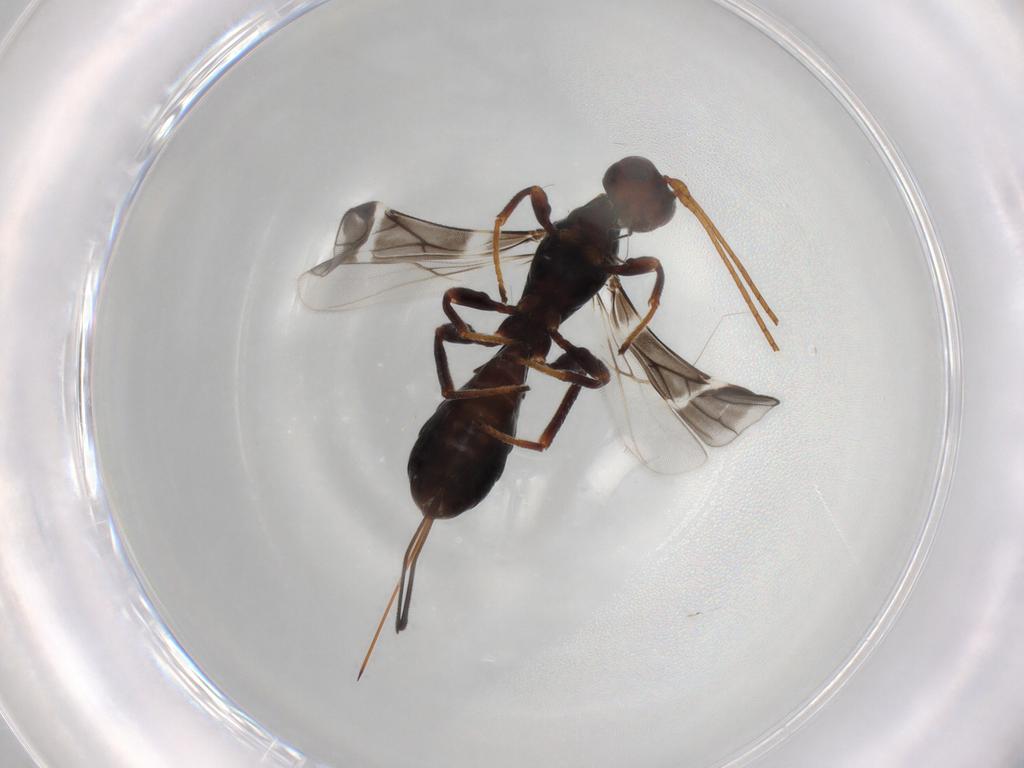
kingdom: Animalia
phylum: Arthropoda
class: Insecta
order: Hymenoptera
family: Formicidae
